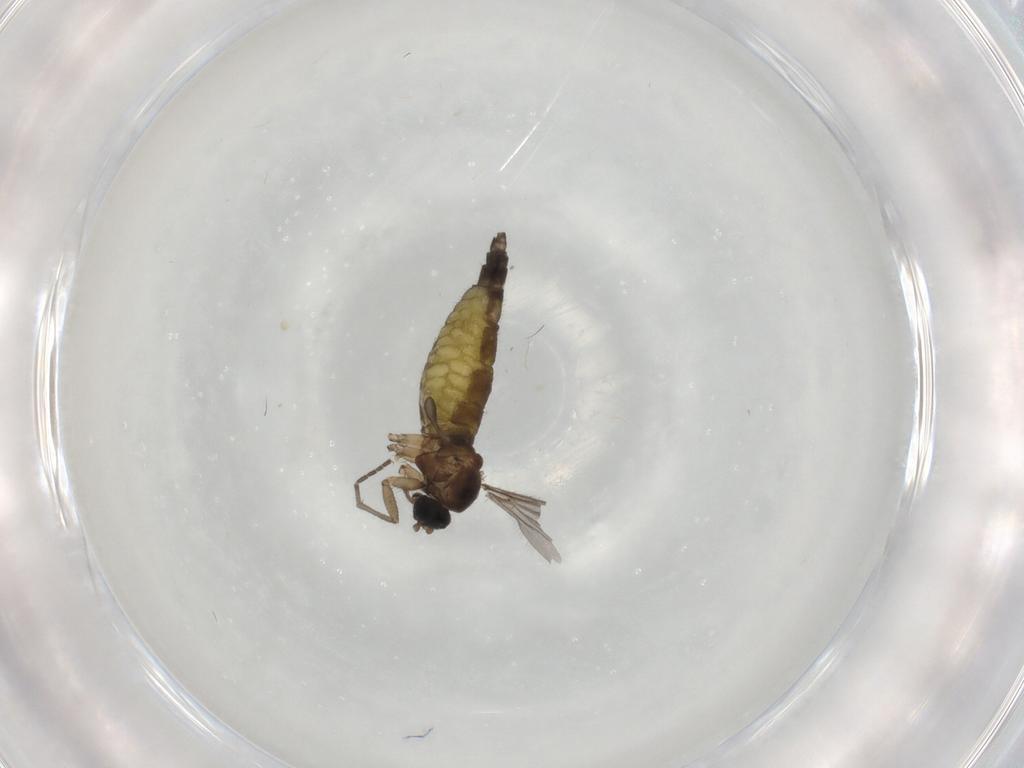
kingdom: Animalia
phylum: Arthropoda
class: Insecta
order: Diptera
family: Sciaridae
